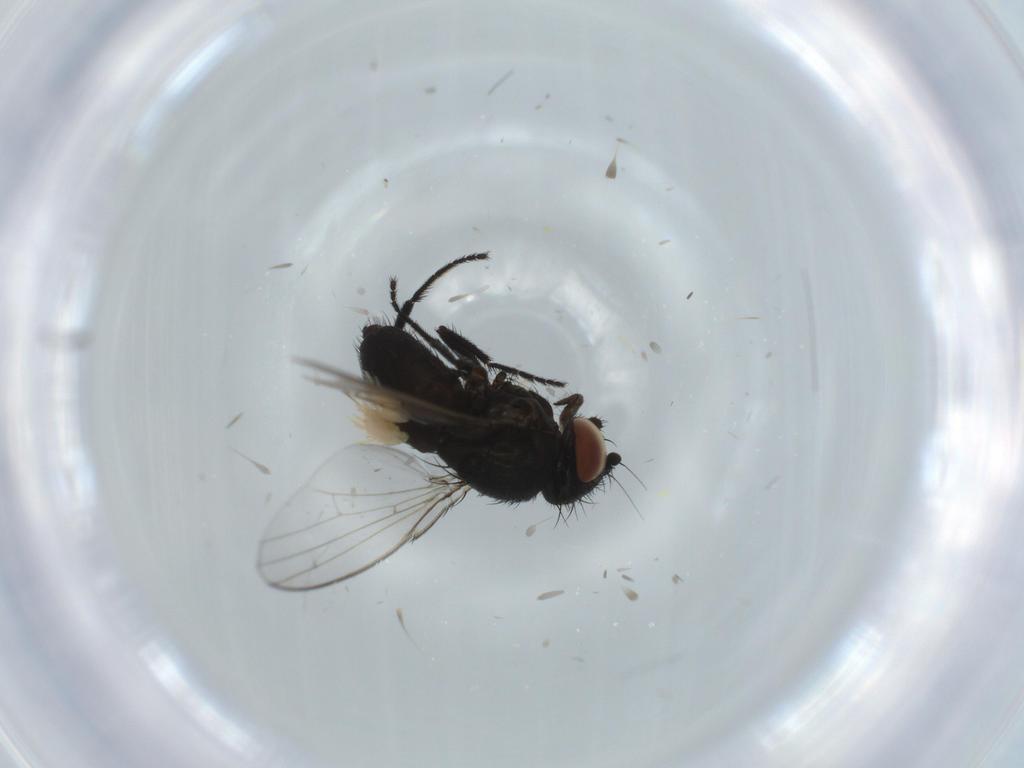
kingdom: Animalia
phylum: Arthropoda
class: Insecta
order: Diptera
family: Milichiidae
